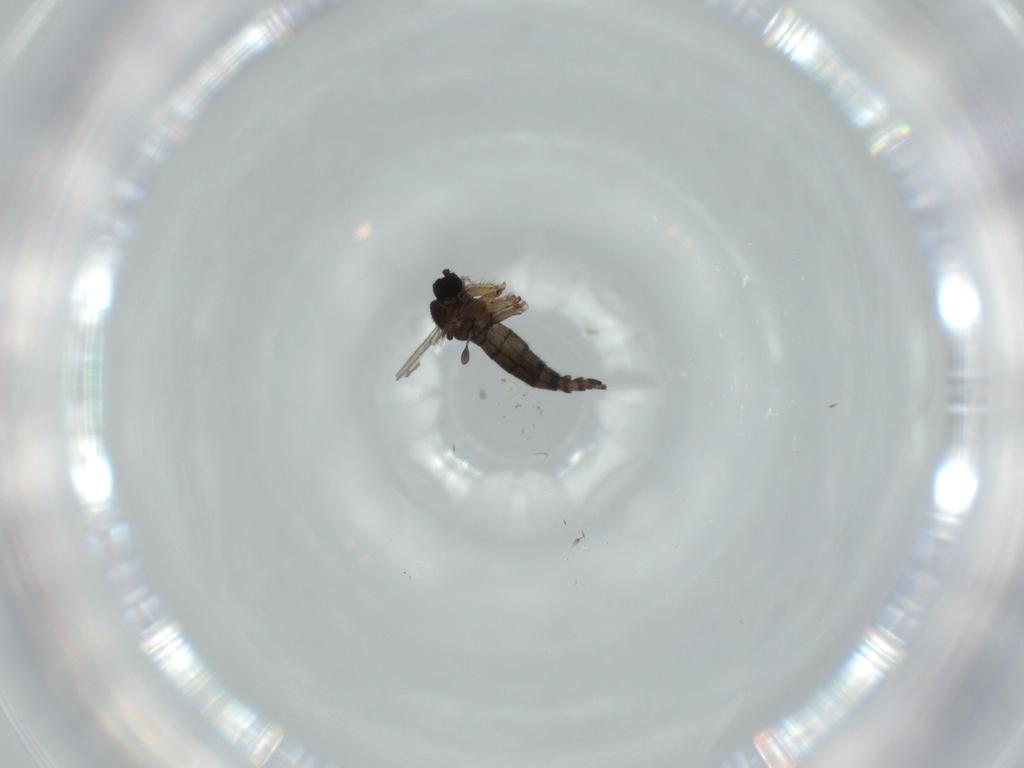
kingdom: Animalia
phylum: Arthropoda
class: Insecta
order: Diptera
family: Sciaridae
